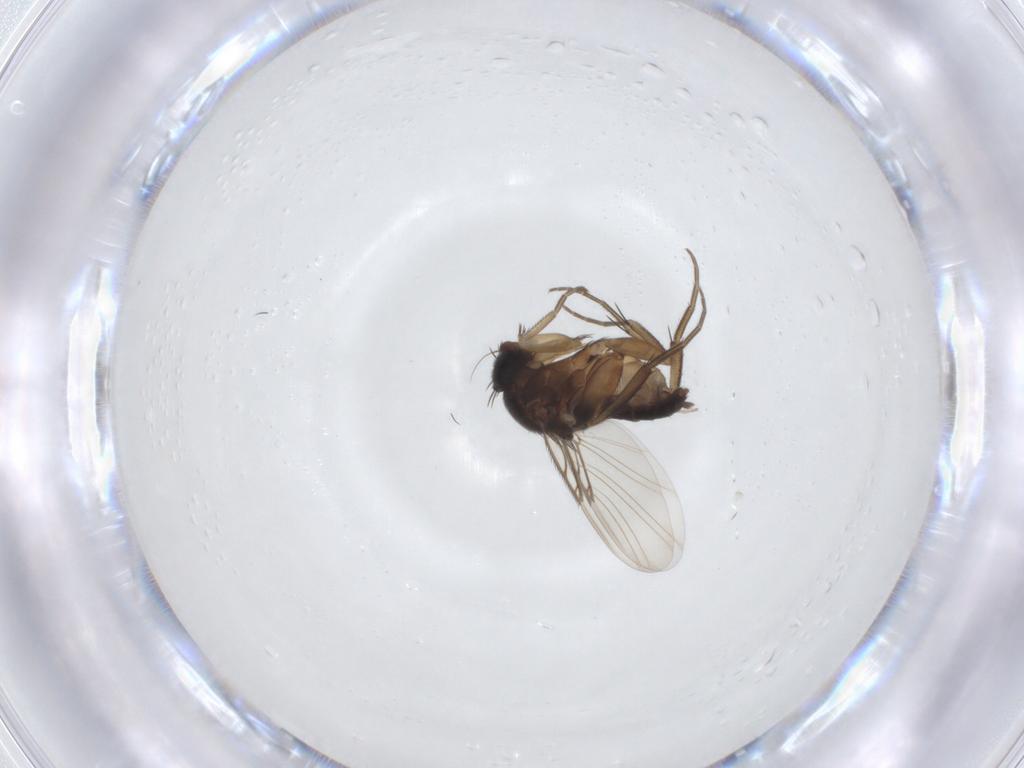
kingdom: Animalia
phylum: Arthropoda
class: Insecta
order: Diptera
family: Phoridae
